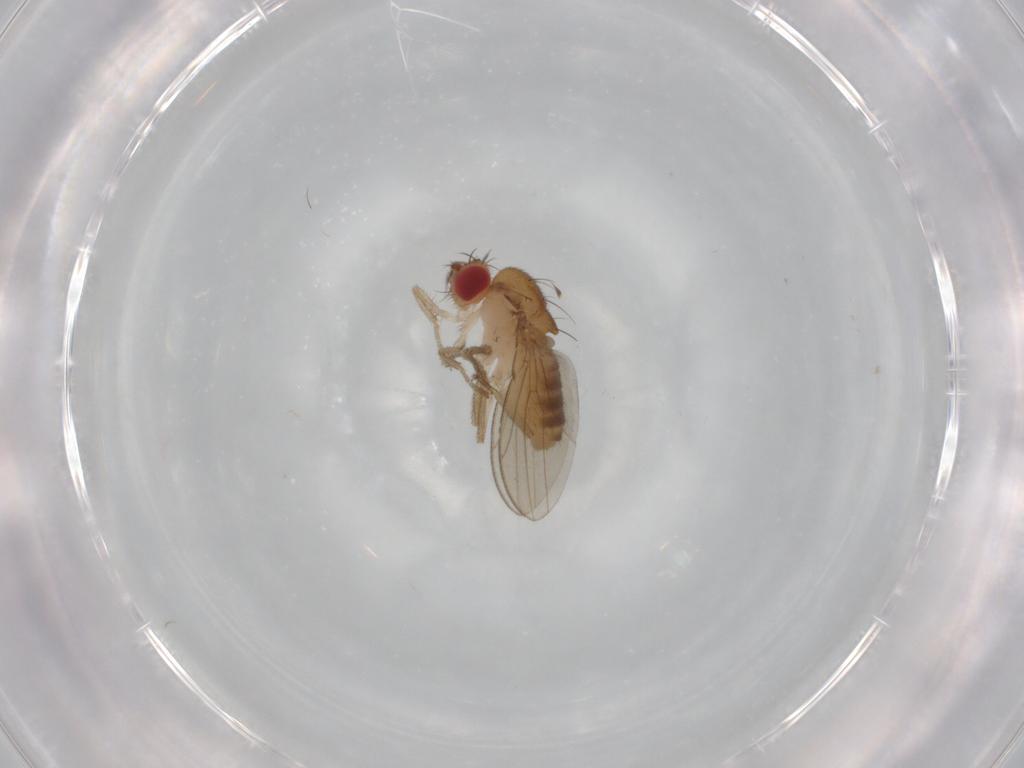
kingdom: Animalia
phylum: Arthropoda
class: Insecta
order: Diptera
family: Drosophilidae
